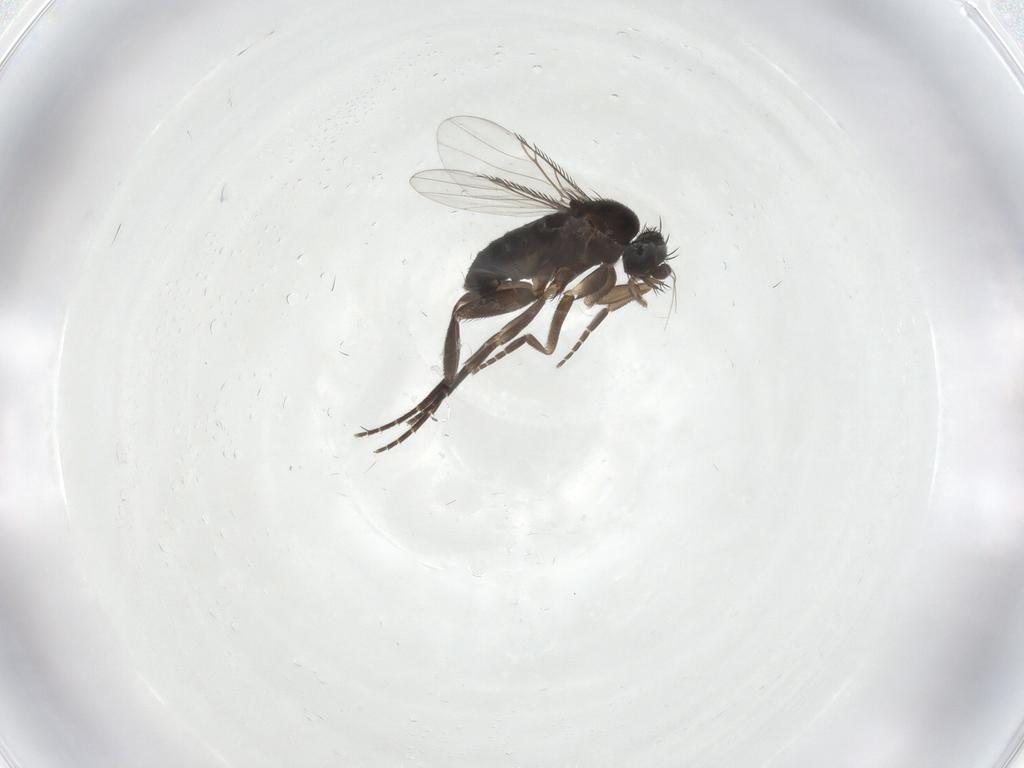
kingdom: Animalia
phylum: Arthropoda
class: Insecta
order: Diptera
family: Phoridae
